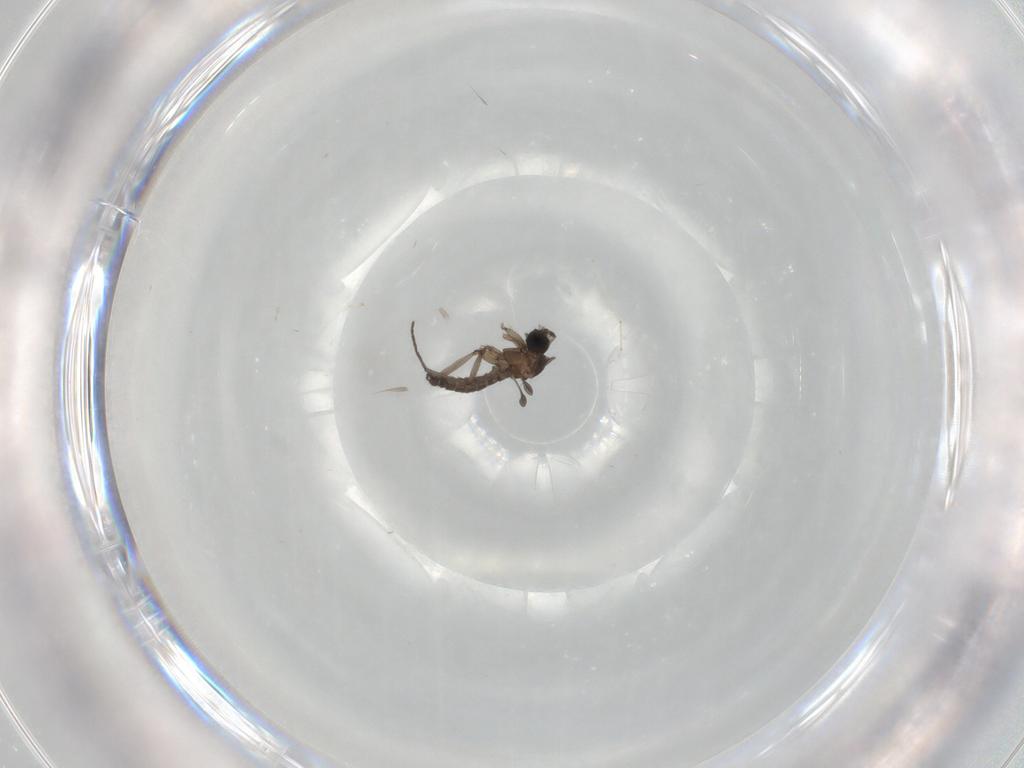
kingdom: Animalia
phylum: Arthropoda
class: Insecta
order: Diptera
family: Sciaridae
